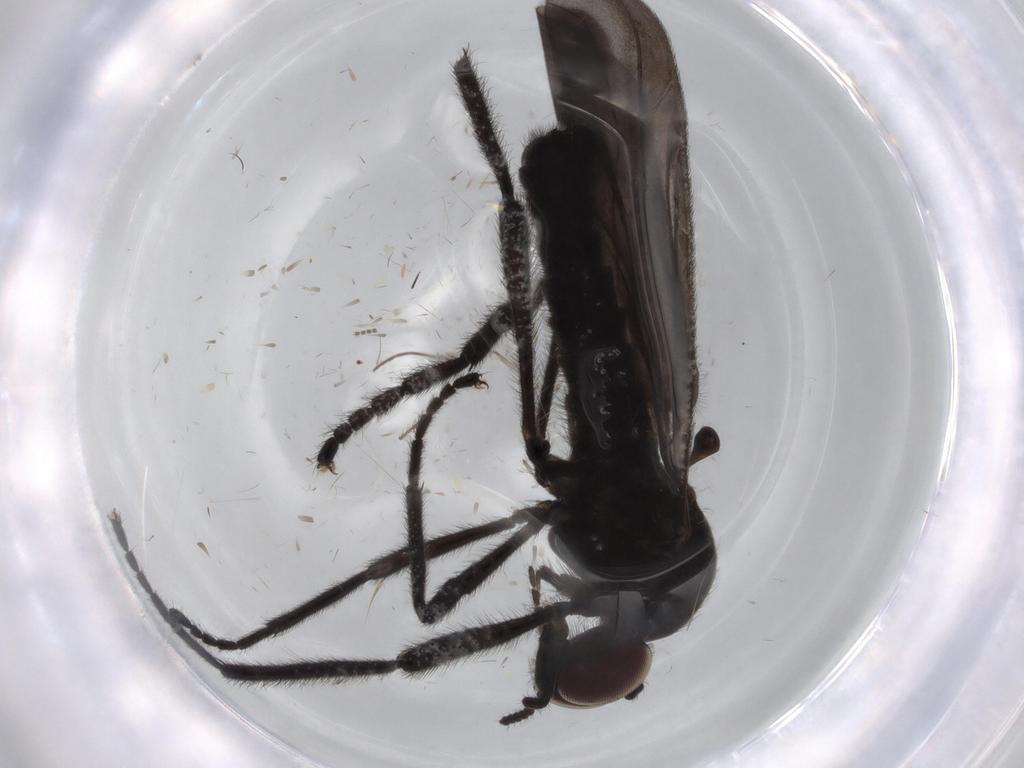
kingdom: Animalia
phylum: Arthropoda
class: Insecta
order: Diptera
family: Bibionidae
